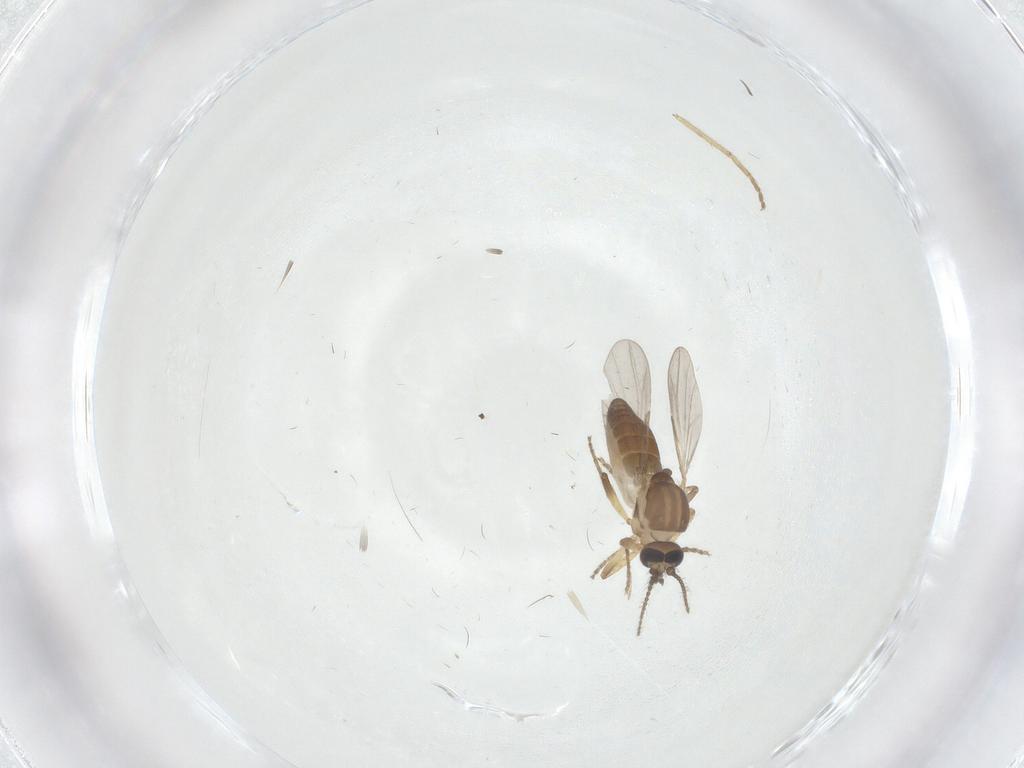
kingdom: Animalia
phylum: Arthropoda
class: Insecta
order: Diptera
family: Chironomidae
